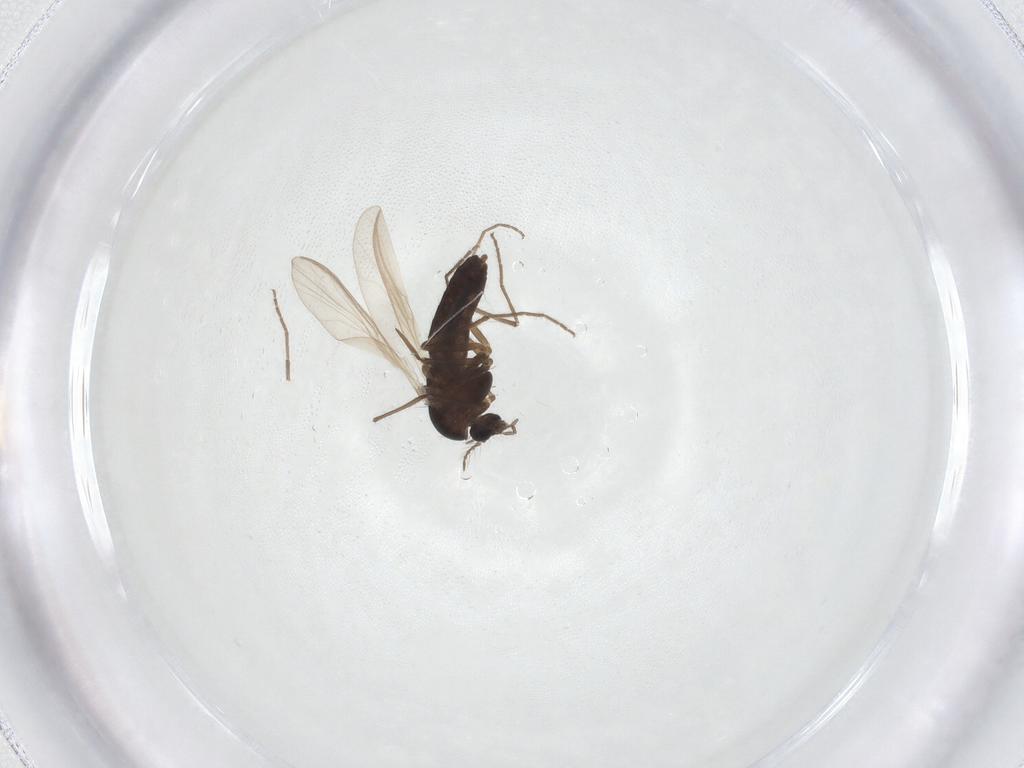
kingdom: Animalia
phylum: Arthropoda
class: Insecta
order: Diptera
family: Chironomidae
